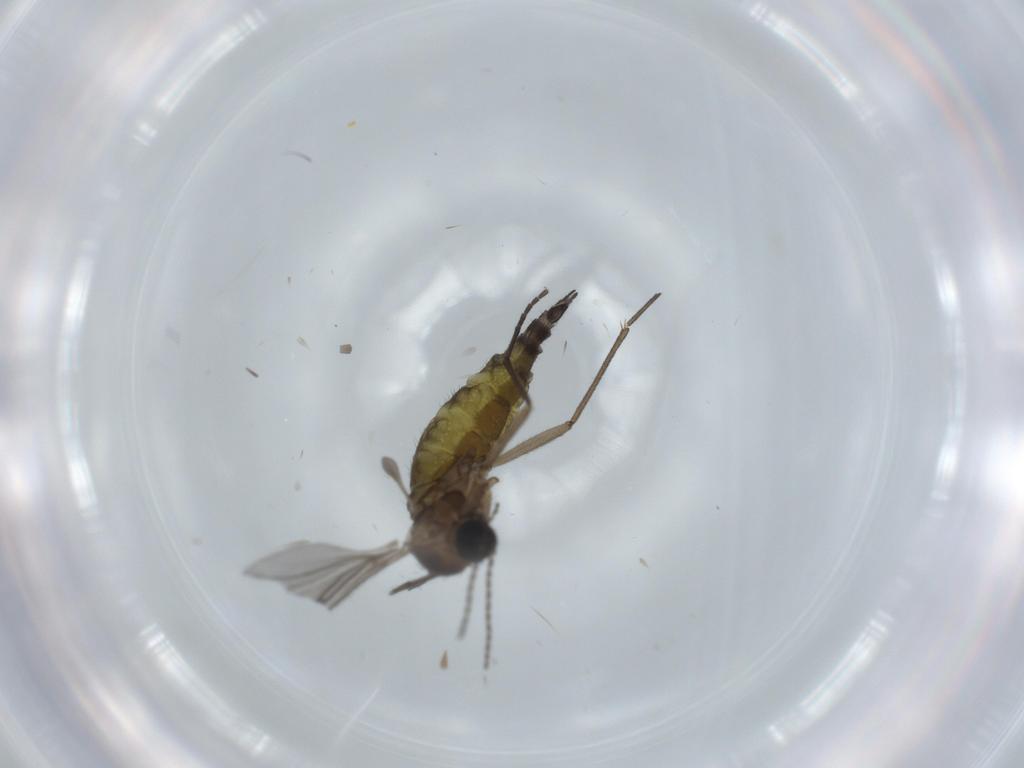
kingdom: Animalia
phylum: Arthropoda
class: Insecta
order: Diptera
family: Sciaridae
